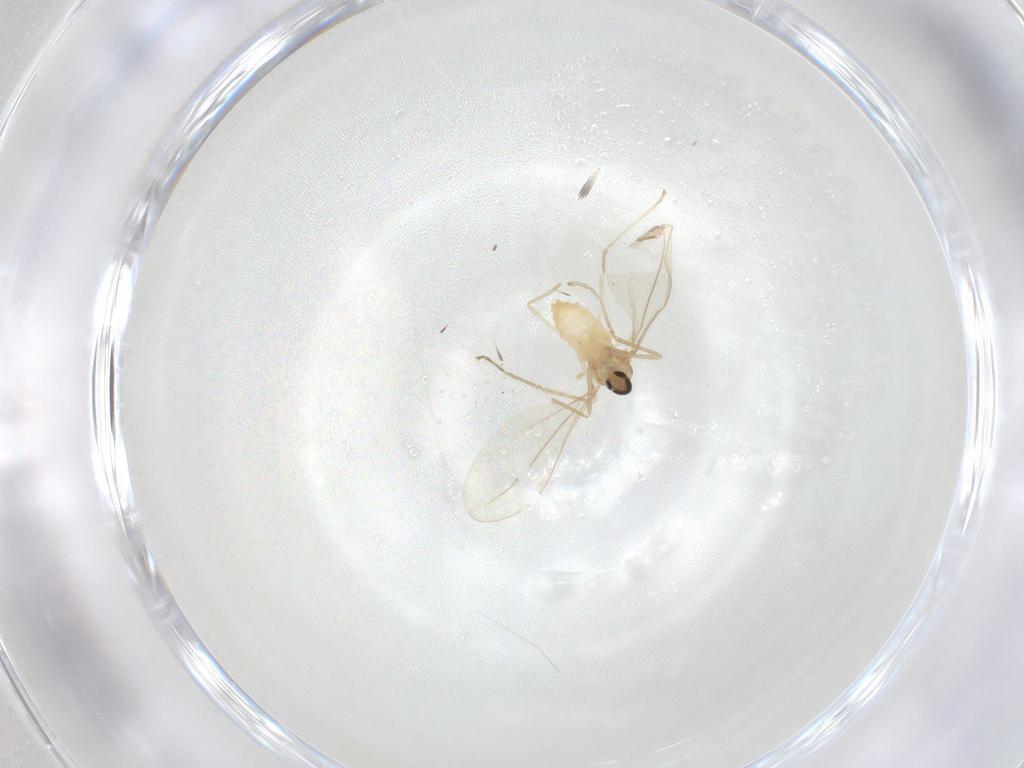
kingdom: Animalia
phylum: Arthropoda
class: Insecta
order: Diptera
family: Cecidomyiidae
